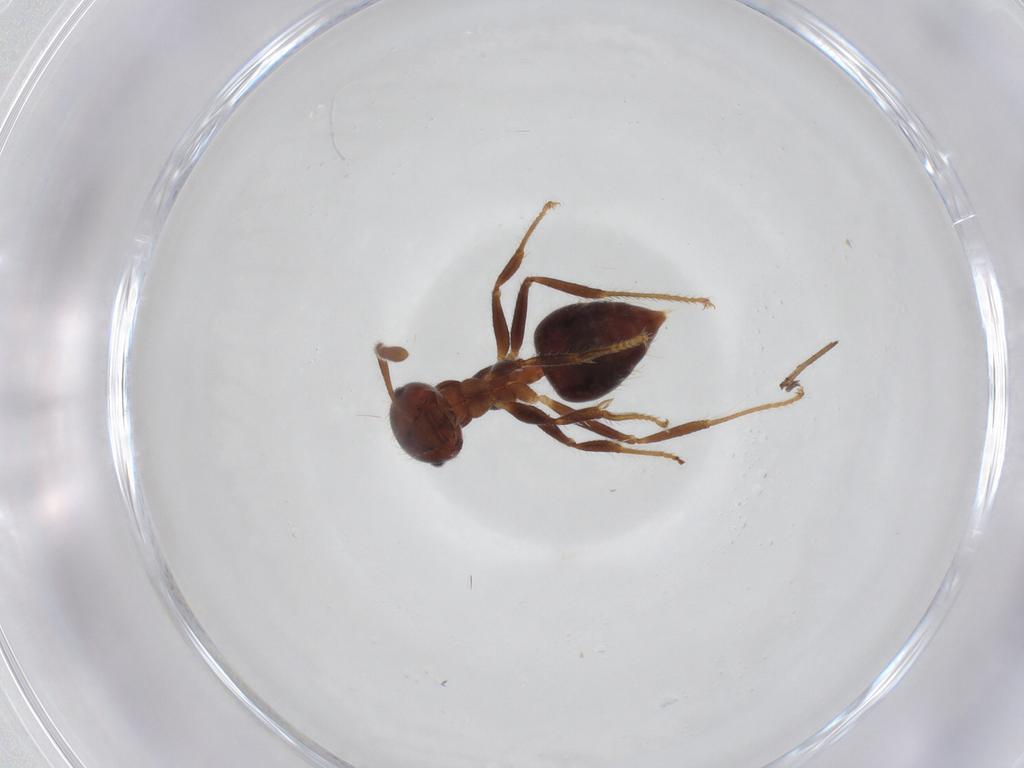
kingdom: Animalia
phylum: Arthropoda
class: Insecta
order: Hymenoptera
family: Formicidae
